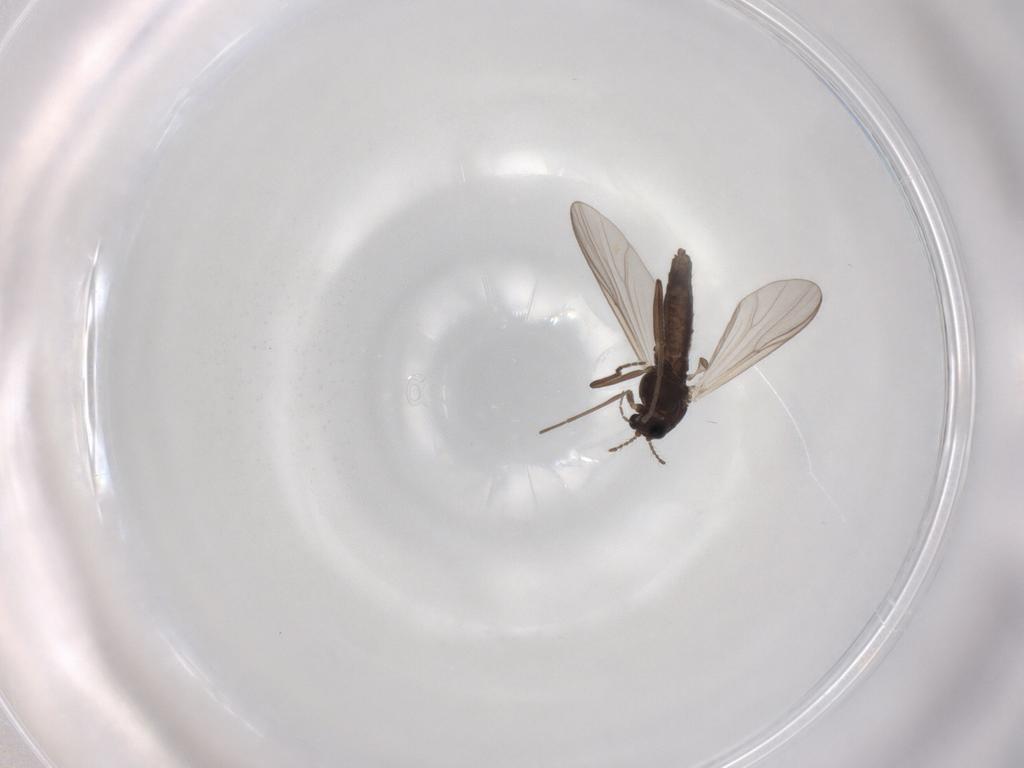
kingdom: Animalia
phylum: Arthropoda
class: Insecta
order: Diptera
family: Chironomidae
